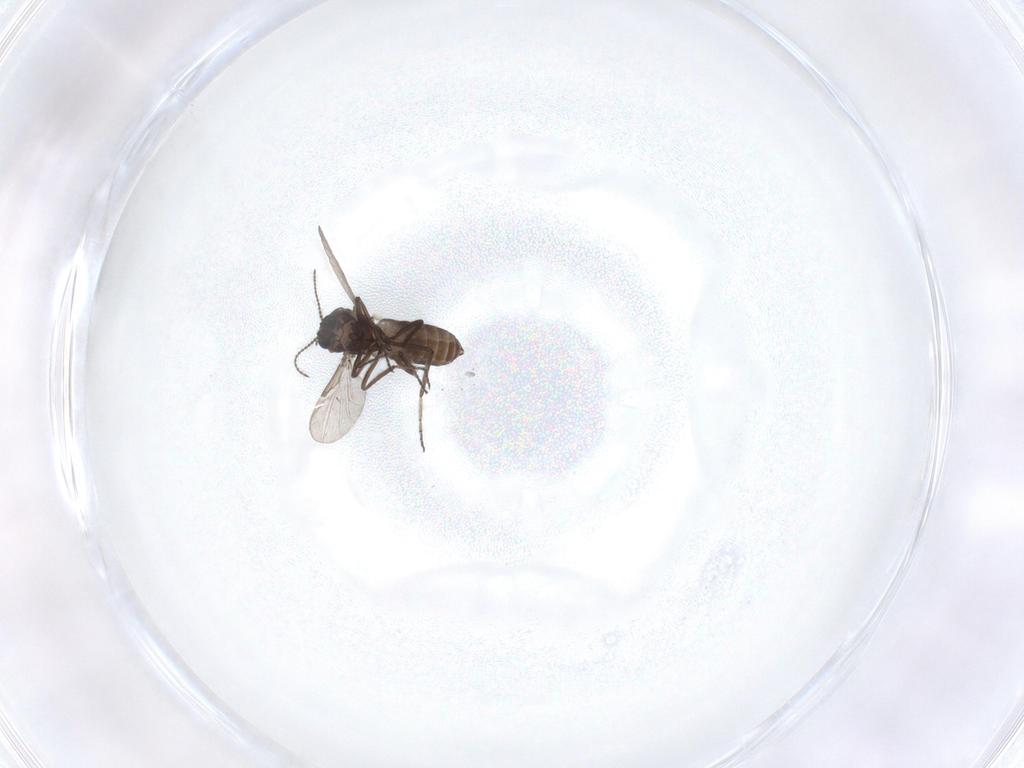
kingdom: Animalia
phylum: Arthropoda
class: Insecta
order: Diptera
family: Ceratopogonidae
